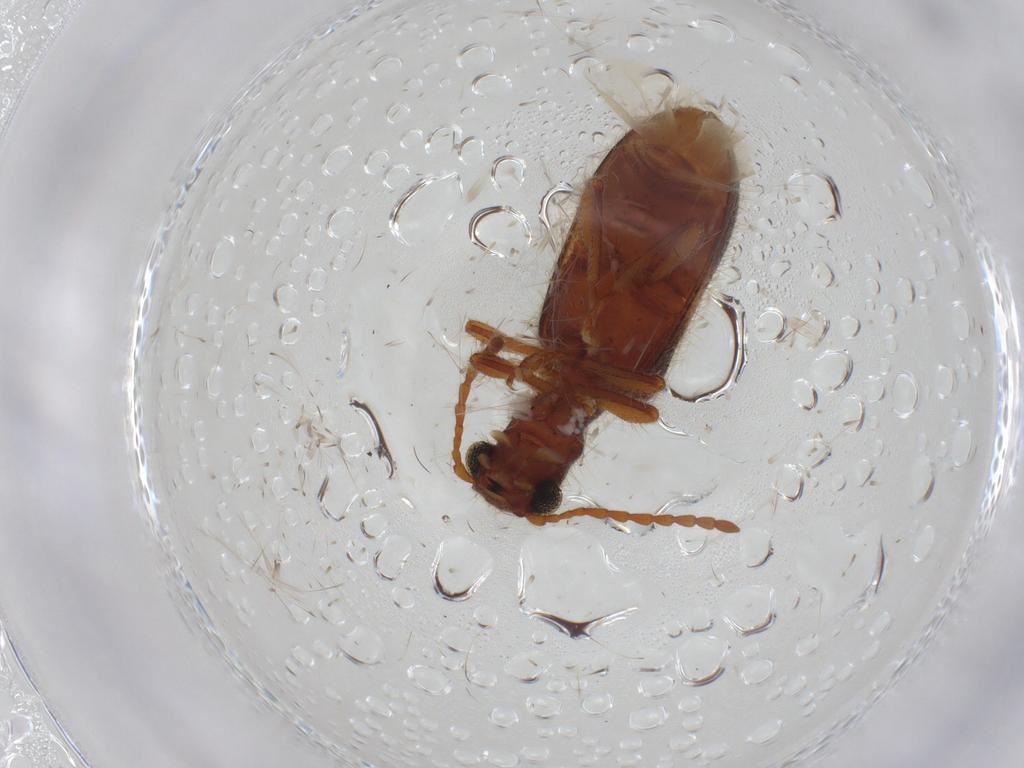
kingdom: Animalia
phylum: Arthropoda
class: Insecta
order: Coleoptera
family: Cleridae
